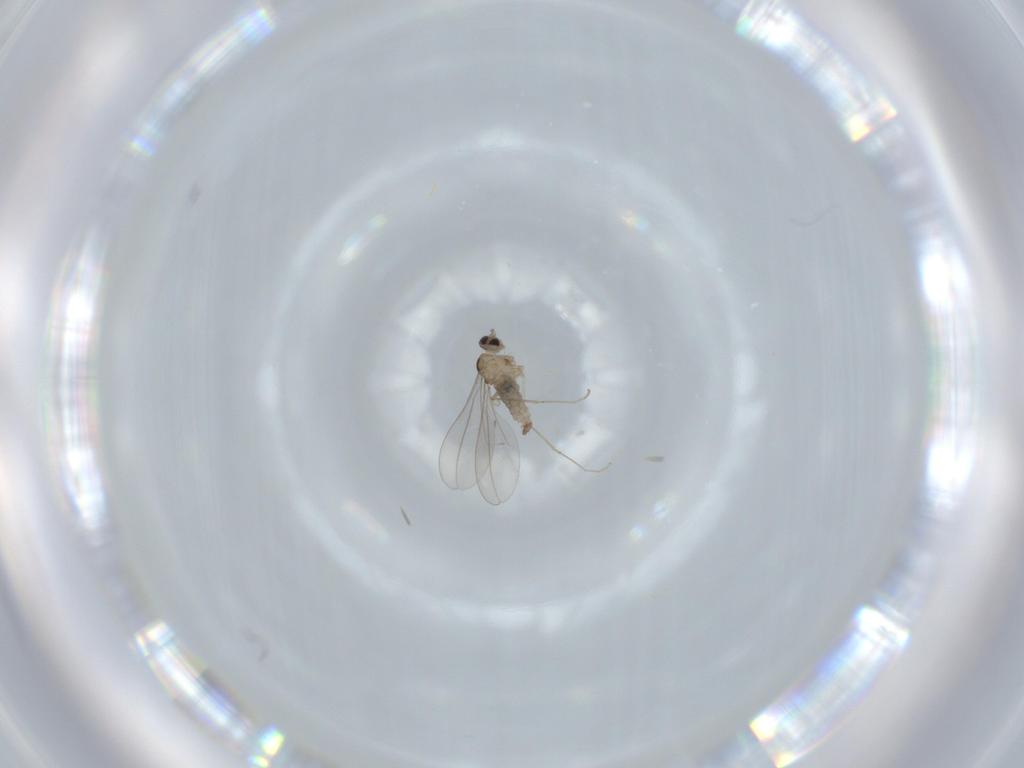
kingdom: Animalia
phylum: Arthropoda
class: Insecta
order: Diptera
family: Cecidomyiidae
